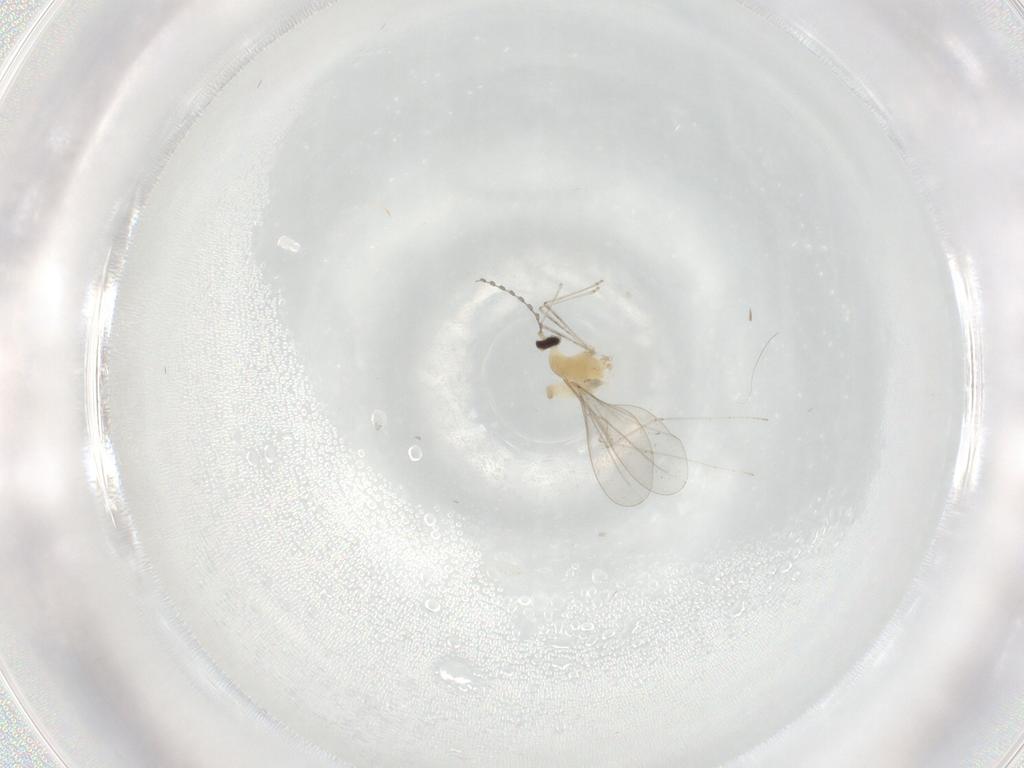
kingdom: Animalia
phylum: Arthropoda
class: Insecta
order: Diptera
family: Cecidomyiidae
